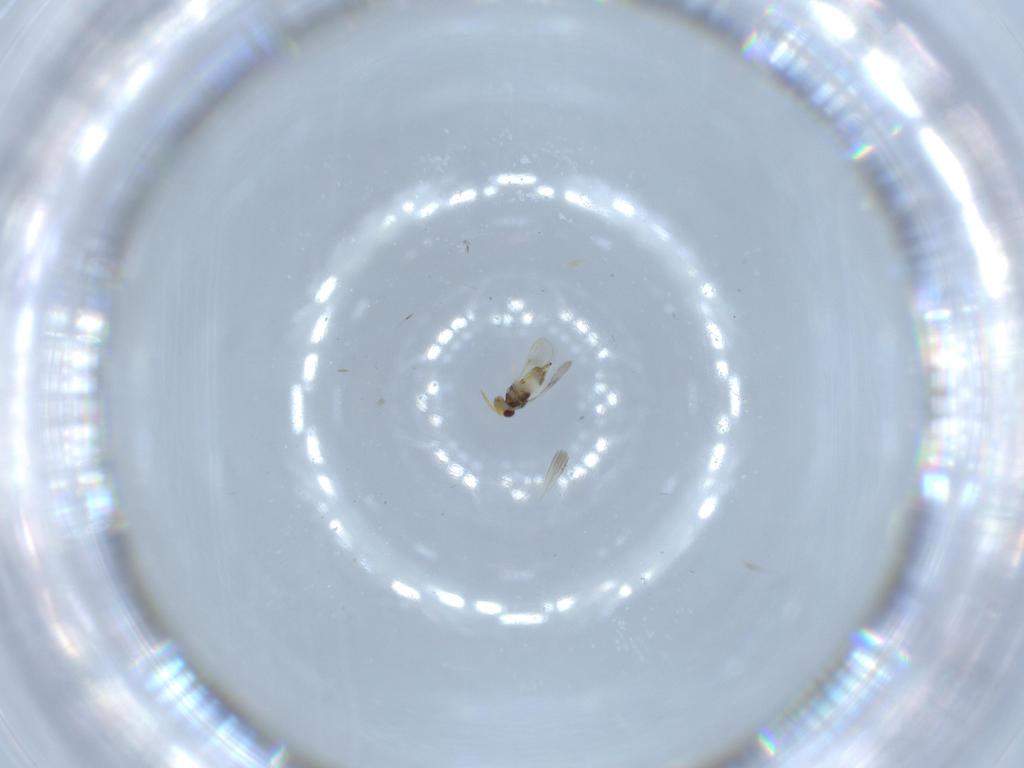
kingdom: Animalia
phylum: Arthropoda
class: Insecta
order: Hymenoptera
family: Aphelinidae
